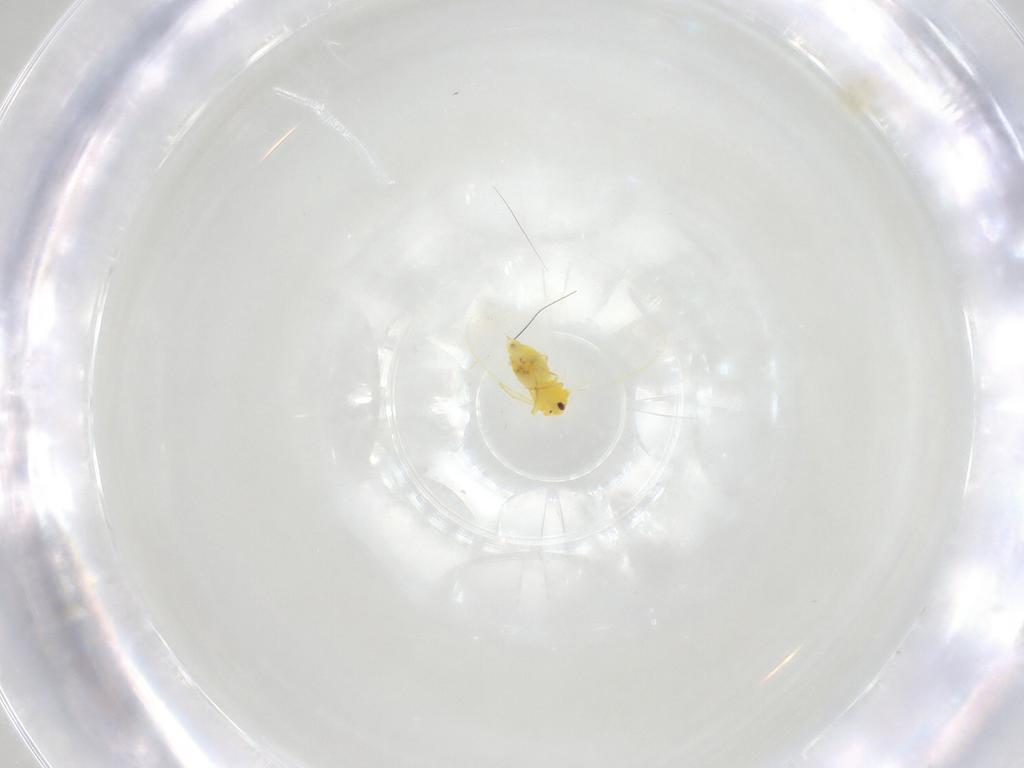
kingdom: Animalia
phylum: Arthropoda
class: Insecta
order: Hemiptera
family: Aleyrodidae
